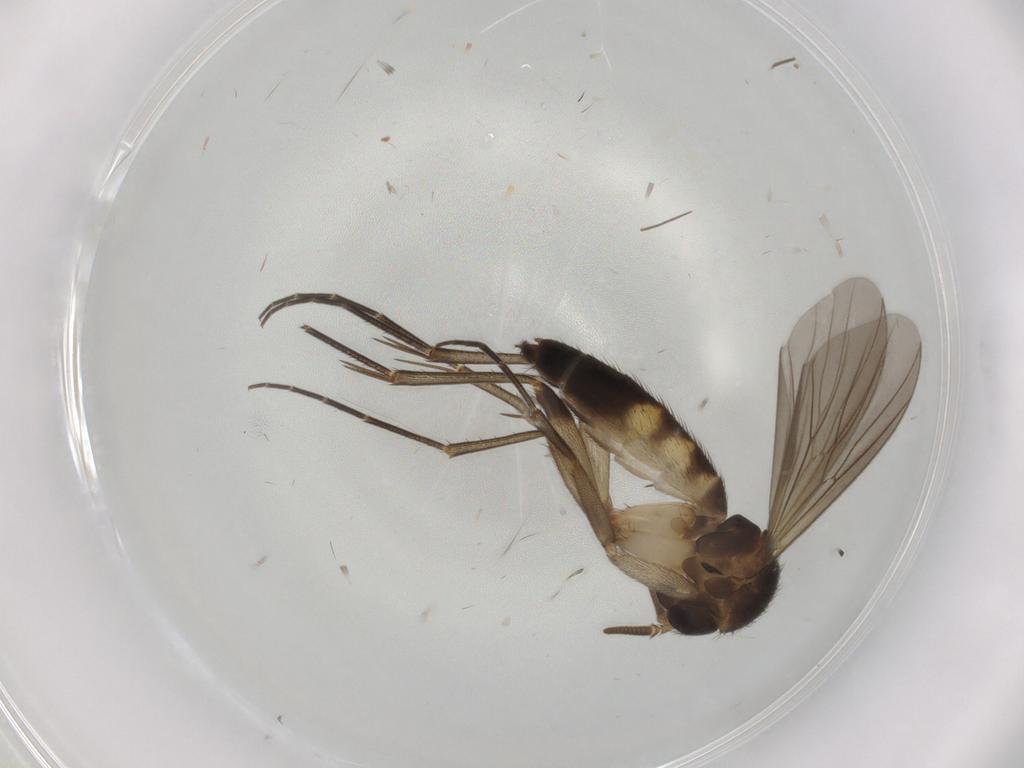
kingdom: Animalia
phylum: Arthropoda
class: Insecta
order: Diptera
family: Mycetophilidae
